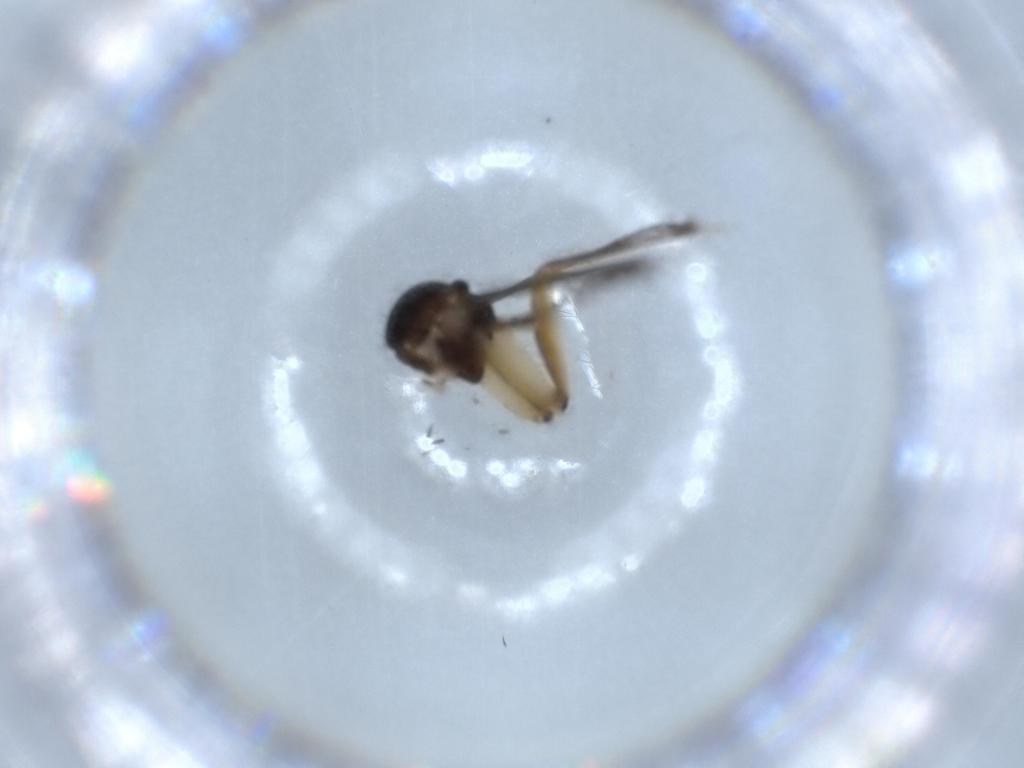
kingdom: Animalia
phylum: Arthropoda
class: Insecta
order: Diptera
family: Mycetophilidae
